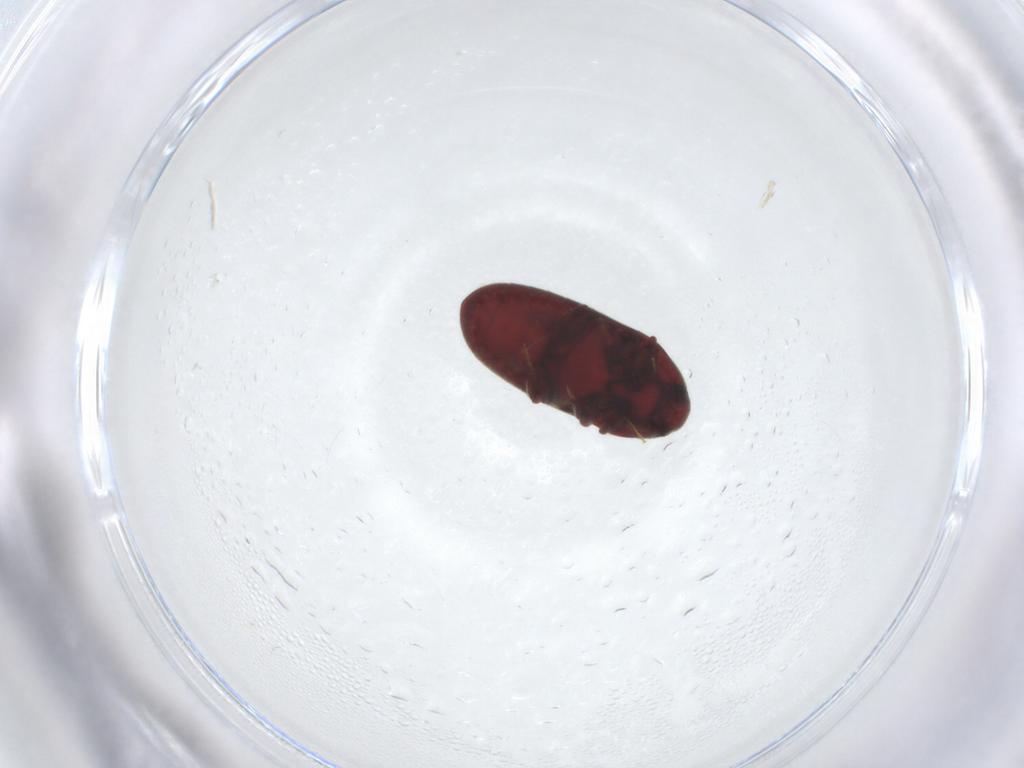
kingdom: Animalia
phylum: Arthropoda
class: Insecta
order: Coleoptera
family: Throscidae
